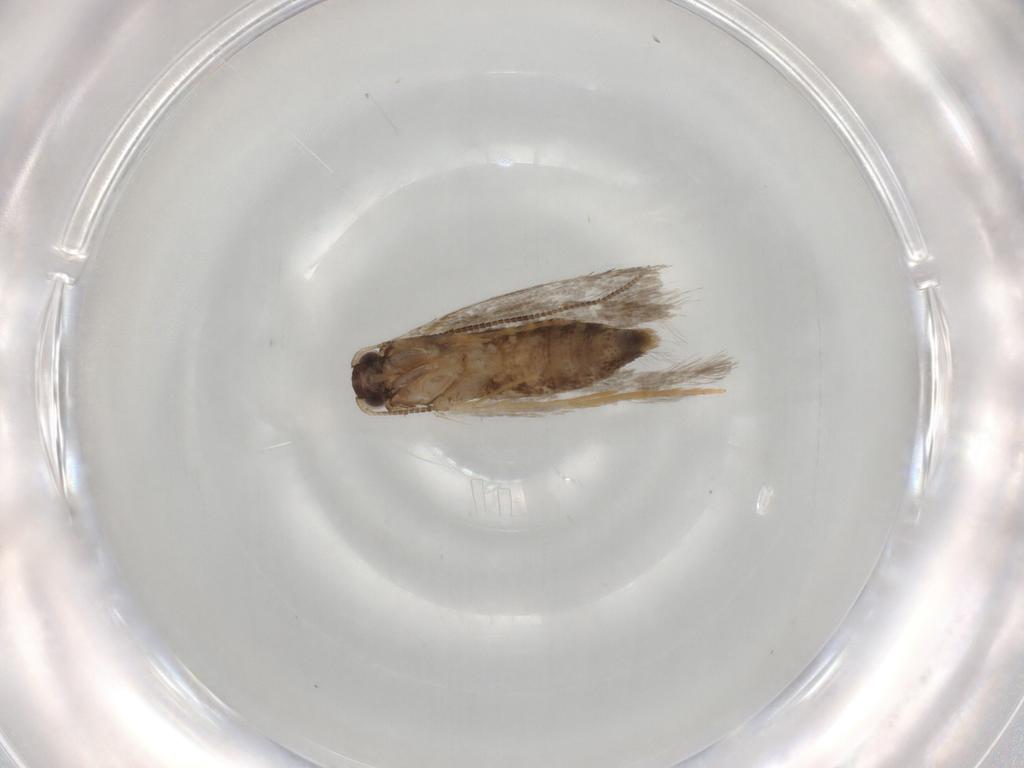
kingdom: Animalia
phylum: Arthropoda
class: Insecta
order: Lepidoptera
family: Tineidae
